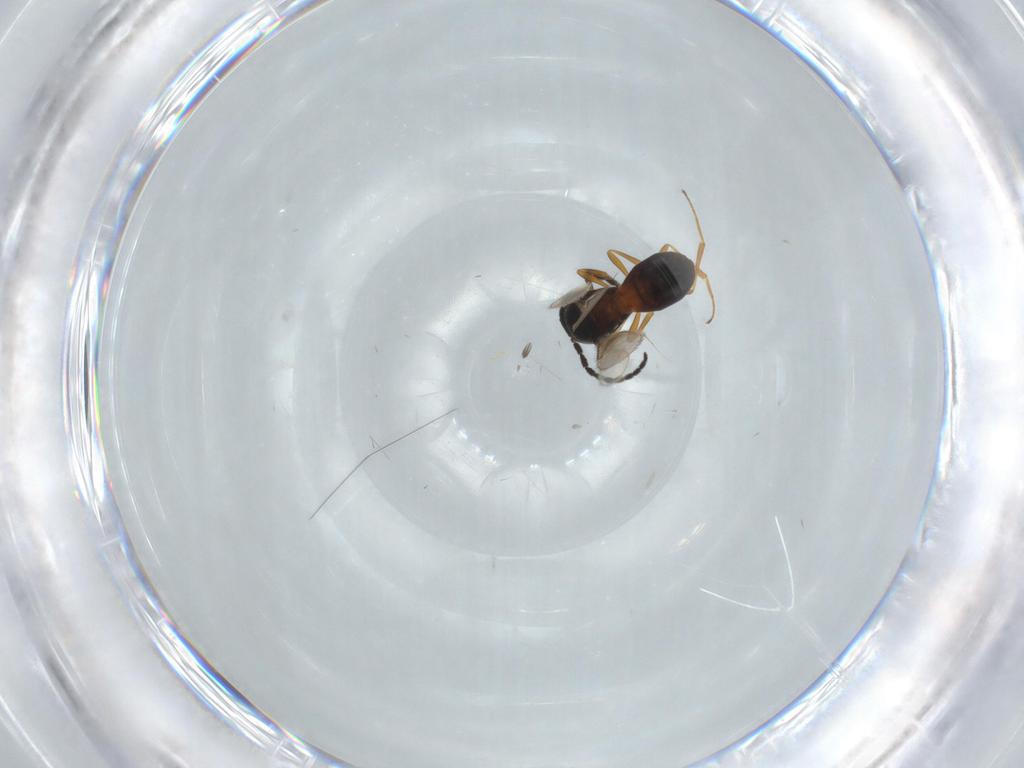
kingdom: Animalia
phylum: Arthropoda
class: Insecta
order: Hymenoptera
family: Scelionidae
